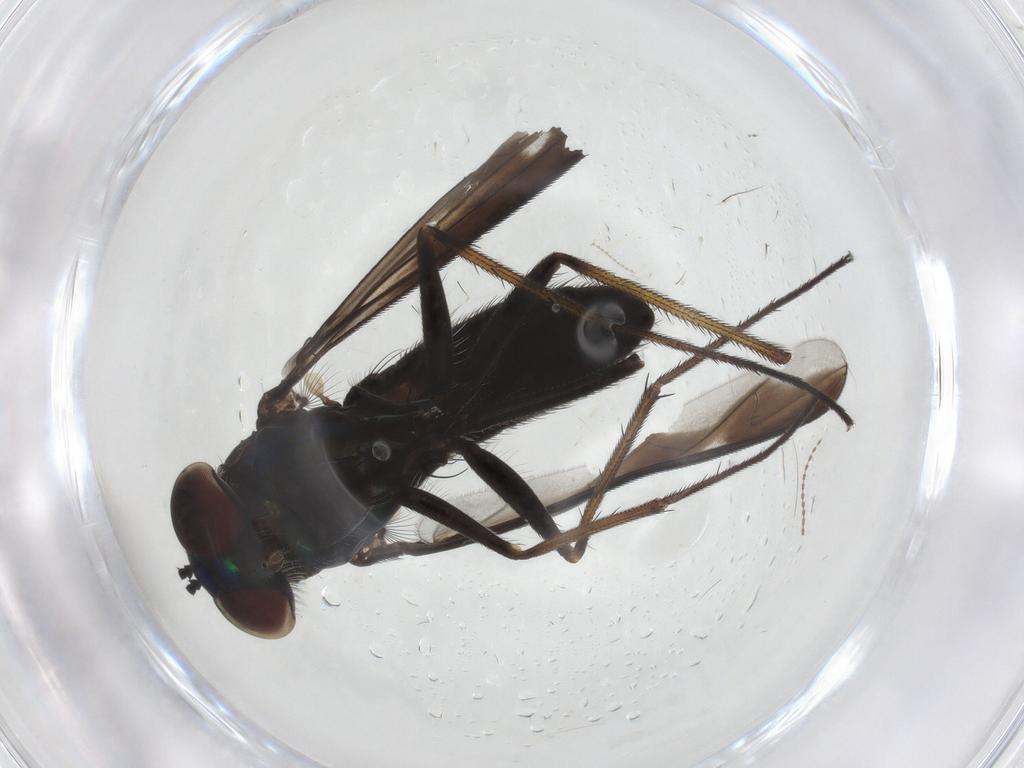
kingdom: Animalia
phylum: Arthropoda
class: Insecta
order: Diptera
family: Dolichopodidae
